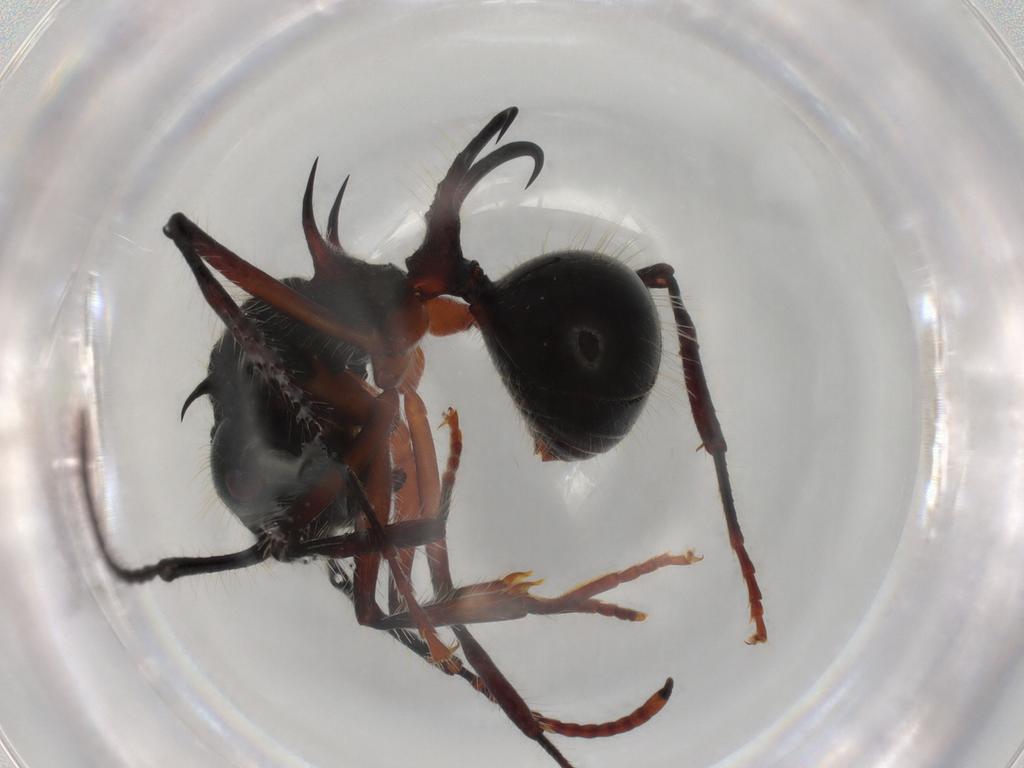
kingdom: Animalia
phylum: Arthropoda
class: Insecta
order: Hymenoptera
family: Formicidae
